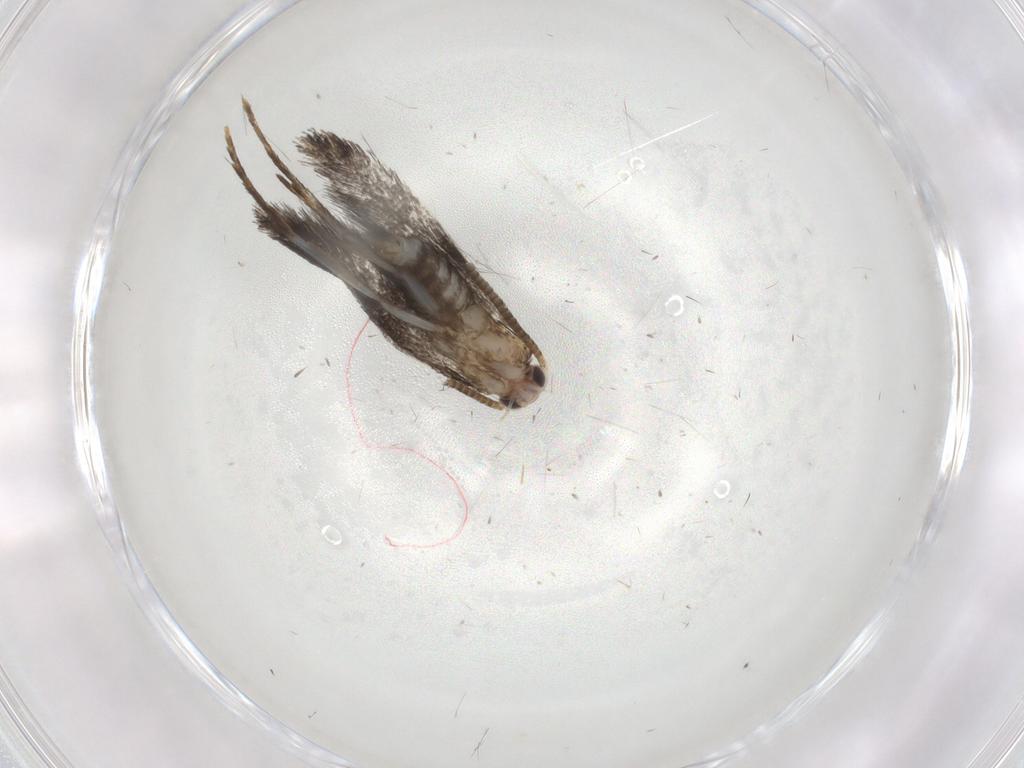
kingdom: Animalia
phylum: Arthropoda
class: Insecta
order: Lepidoptera
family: Tineidae
